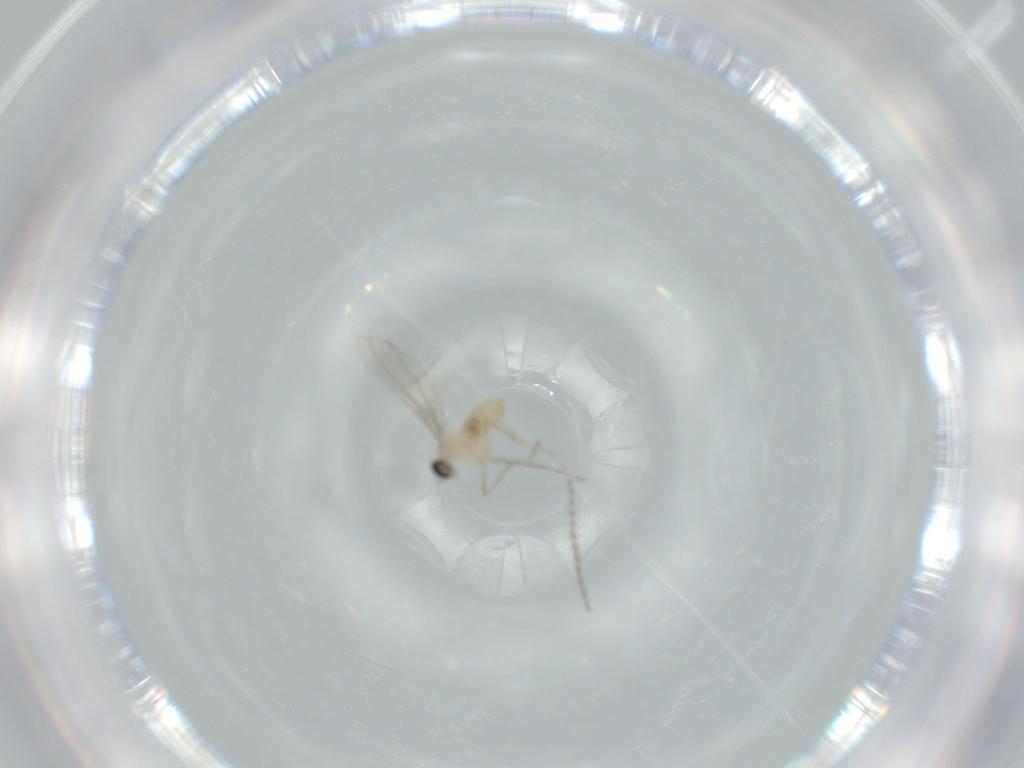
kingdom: Animalia
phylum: Arthropoda
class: Insecta
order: Diptera
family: Cecidomyiidae
